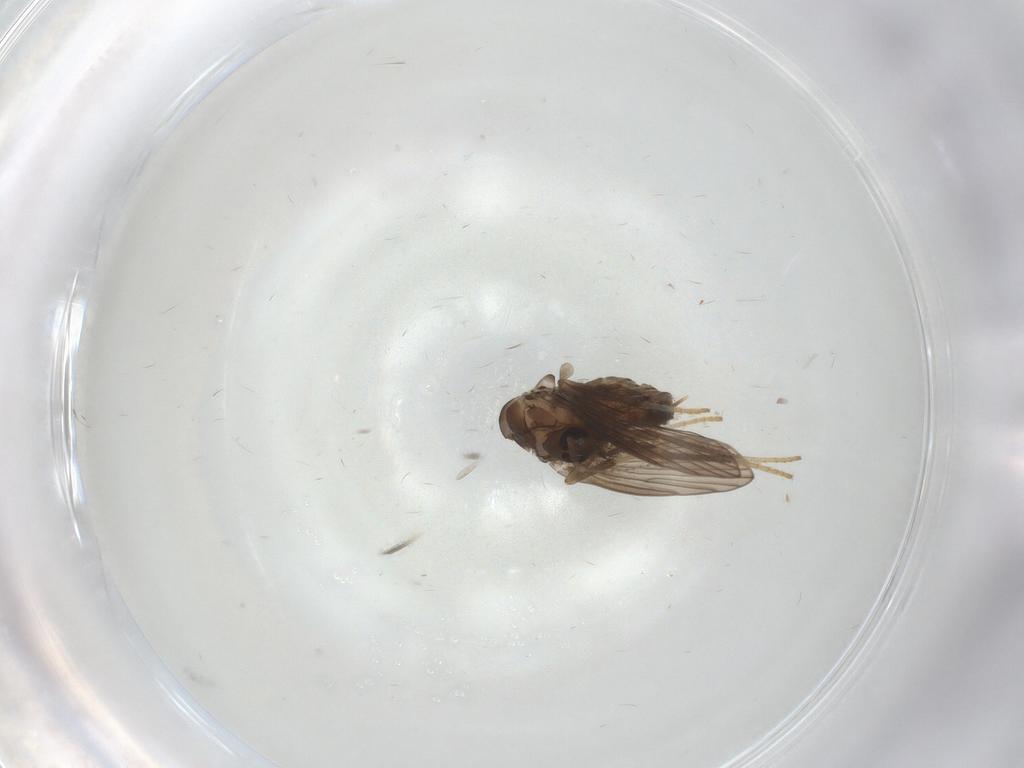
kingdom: Animalia
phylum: Arthropoda
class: Insecta
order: Diptera
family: Psychodidae
